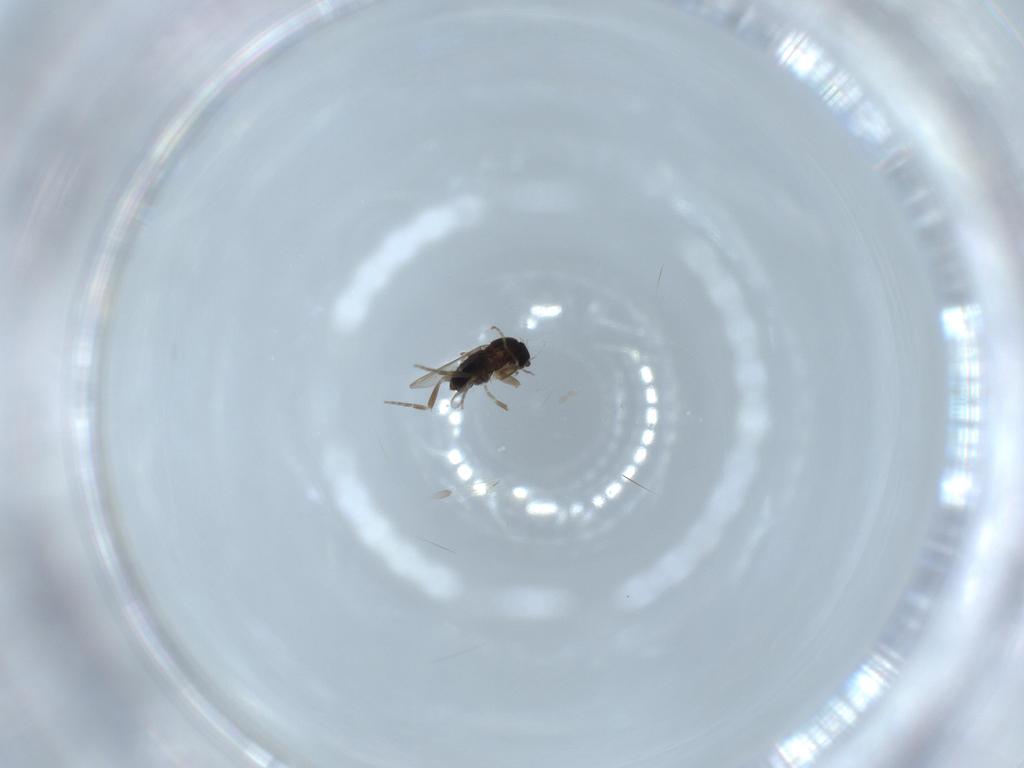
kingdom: Animalia
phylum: Arthropoda
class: Insecta
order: Diptera
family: Phoridae
